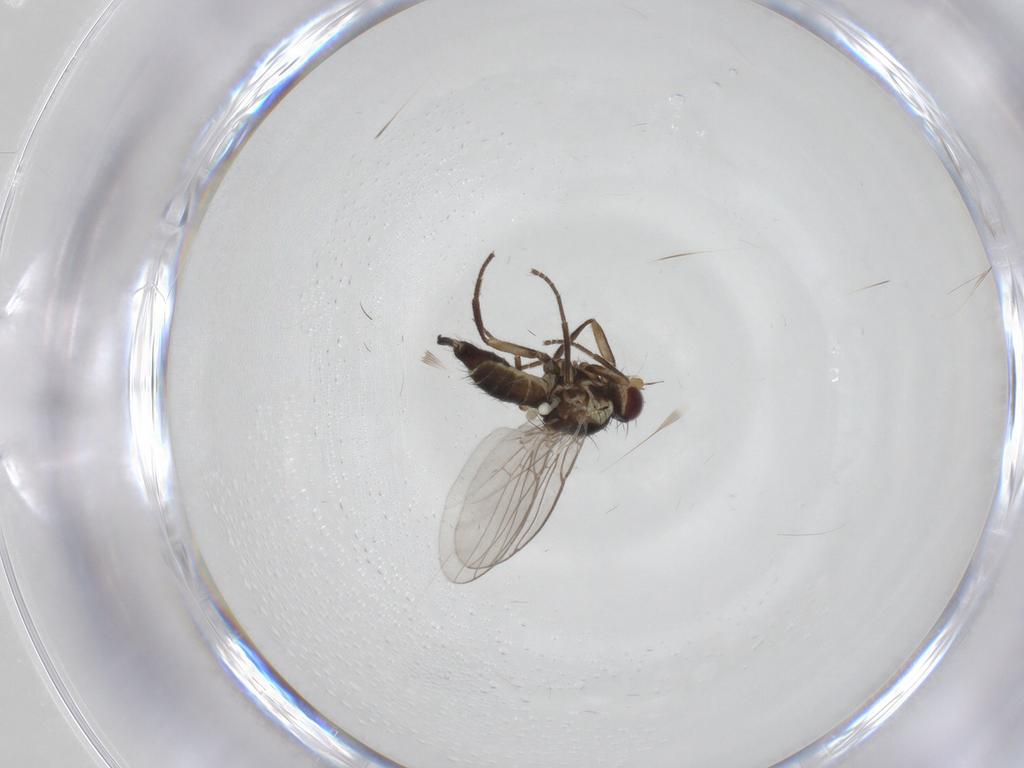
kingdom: Animalia
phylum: Arthropoda
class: Insecta
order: Diptera
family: Agromyzidae
